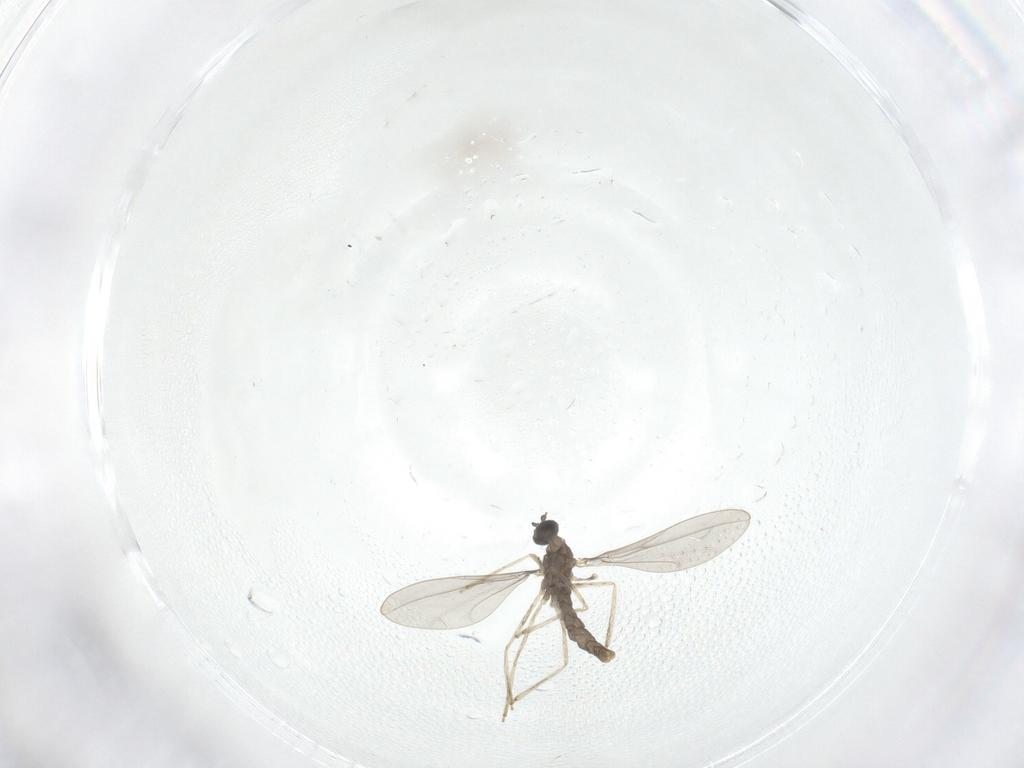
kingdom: Animalia
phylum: Arthropoda
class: Insecta
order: Diptera
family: Cecidomyiidae
